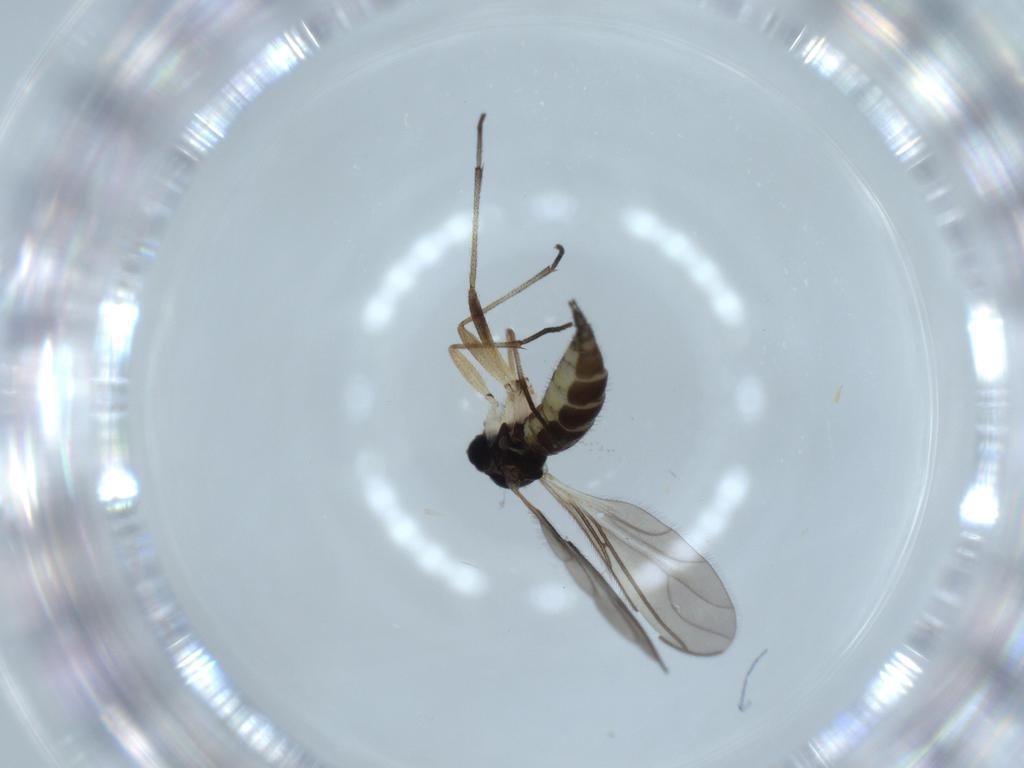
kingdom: Animalia
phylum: Arthropoda
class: Insecta
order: Diptera
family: Sciaridae
